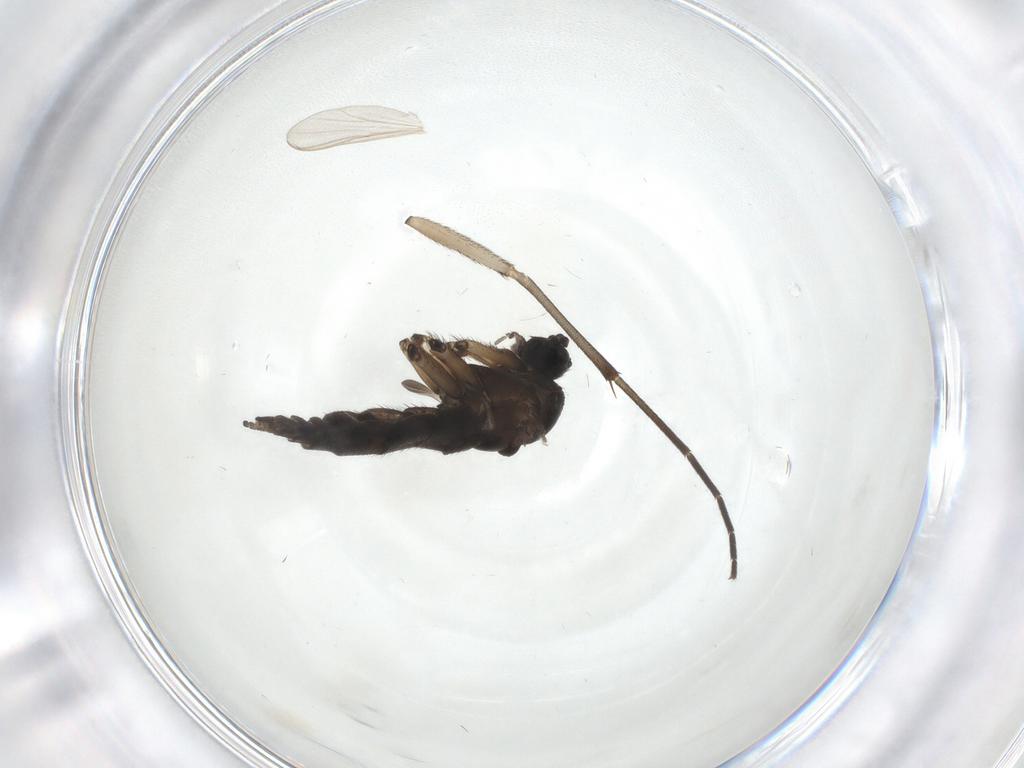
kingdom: Animalia
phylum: Arthropoda
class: Insecta
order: Diptera
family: Sciaridae
